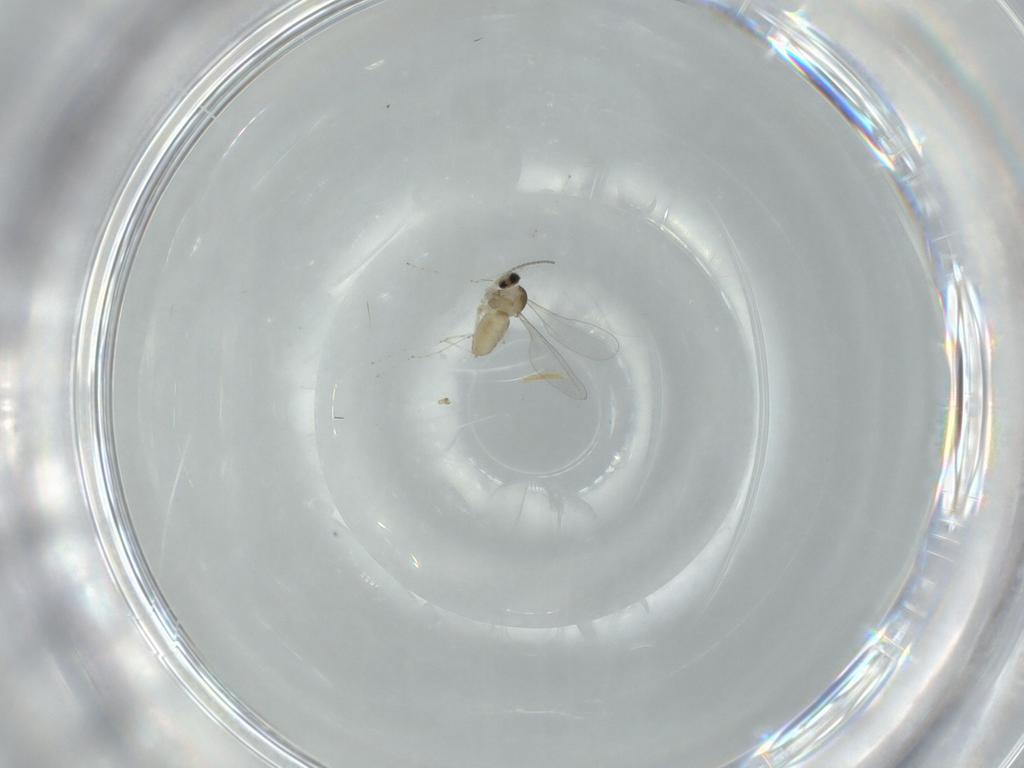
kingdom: Animalia
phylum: Arthropoda
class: Insecta
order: Diptera
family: Cecidomyiidae
